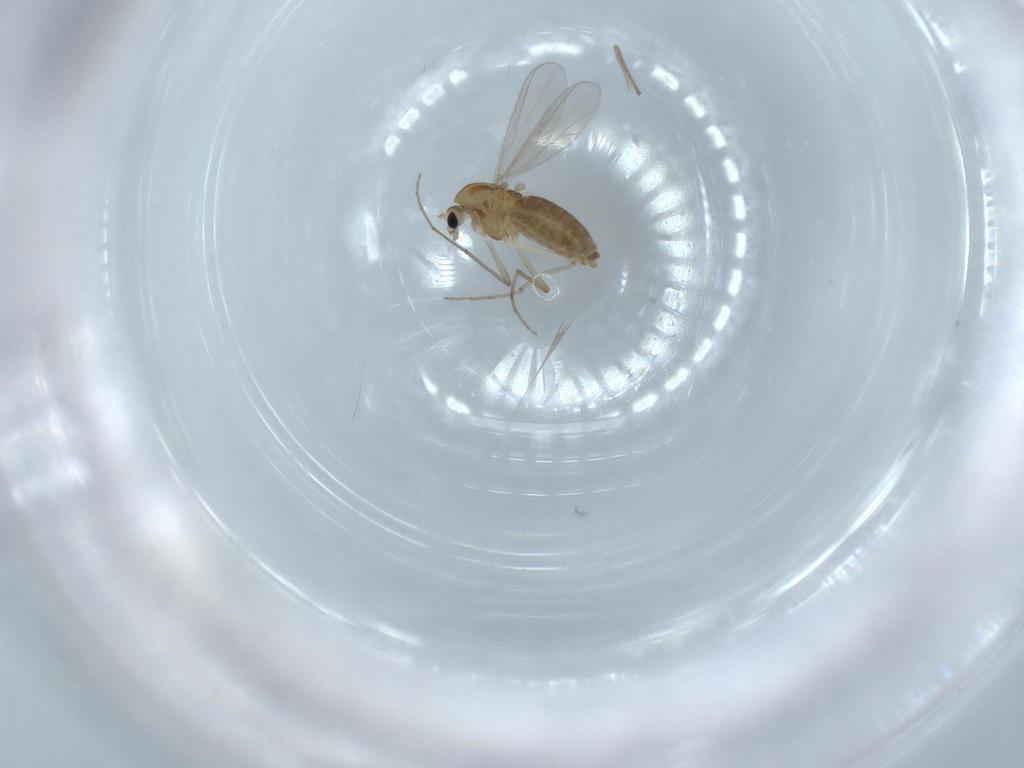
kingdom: Animalia
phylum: Arthropoda
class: Insecta
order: Diptera
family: Chironomidae
